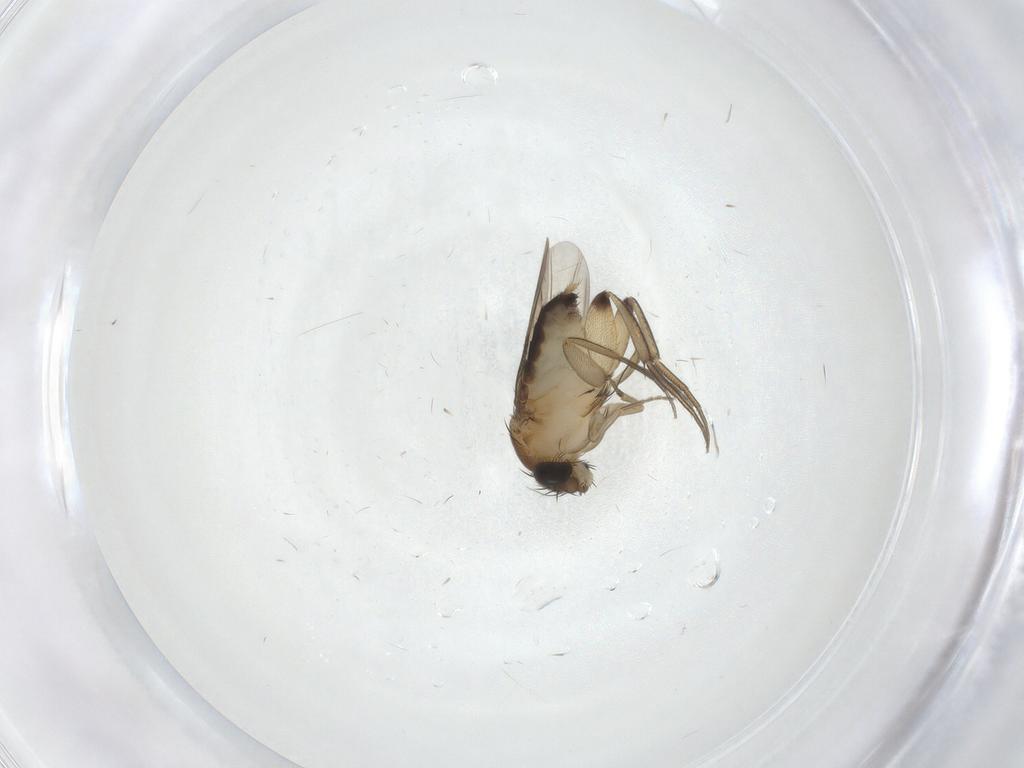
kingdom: Animalia
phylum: Arthropoda
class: Insecta
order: Diptera
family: Phoridae
